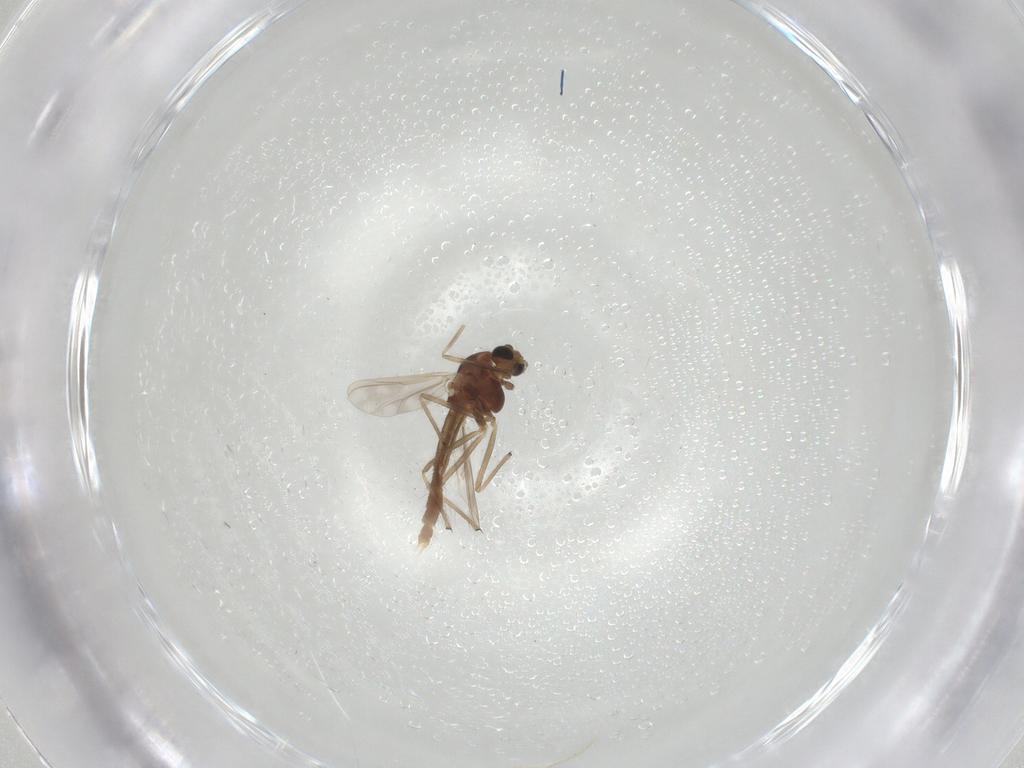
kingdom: Animalia
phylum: Arthropoda
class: Insecta
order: Diptera
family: Chironomidae
